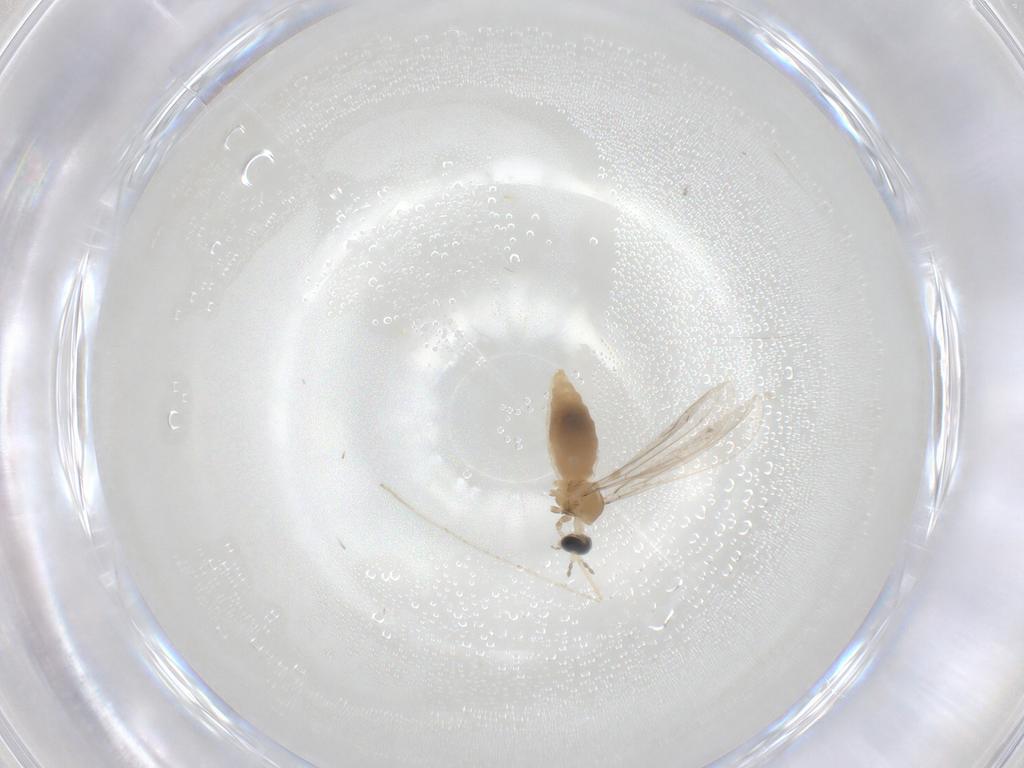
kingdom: Animalia
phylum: Arthropoda
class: Insecta
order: Diptera
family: Cecidomyiidae
